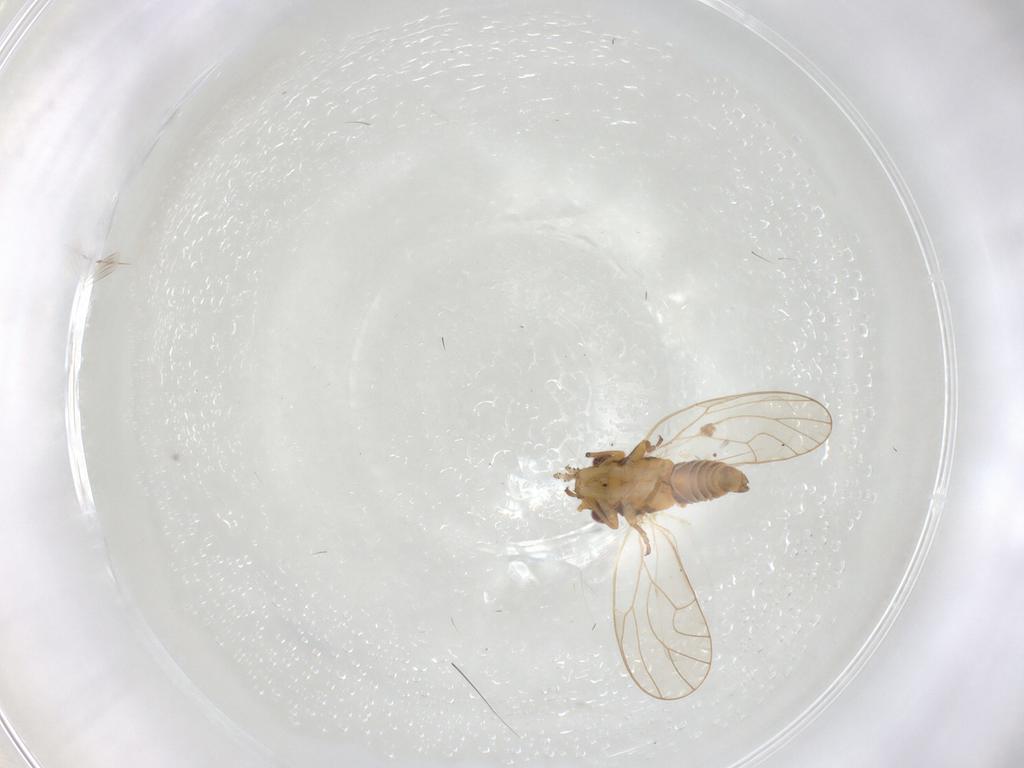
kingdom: Animalia
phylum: Arthropoda
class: Insecta
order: Hemiptera
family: Psyllidae
